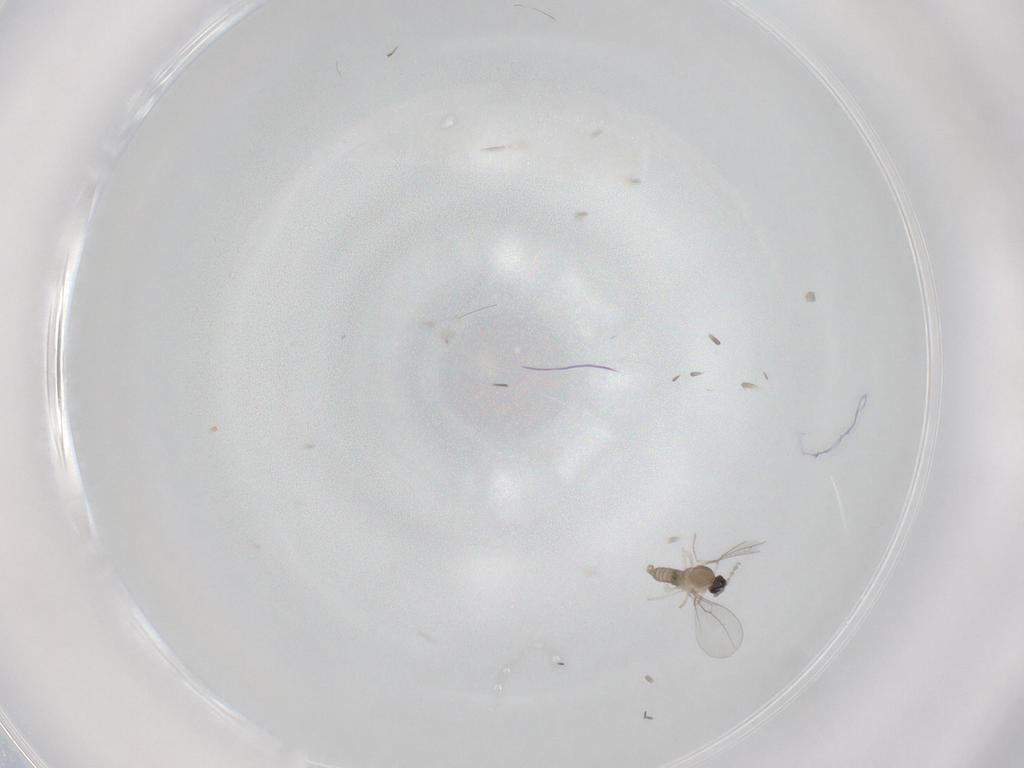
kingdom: Animalia
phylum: Arthropoda
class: Insecta
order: Diptera
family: Cecidomyiidae
